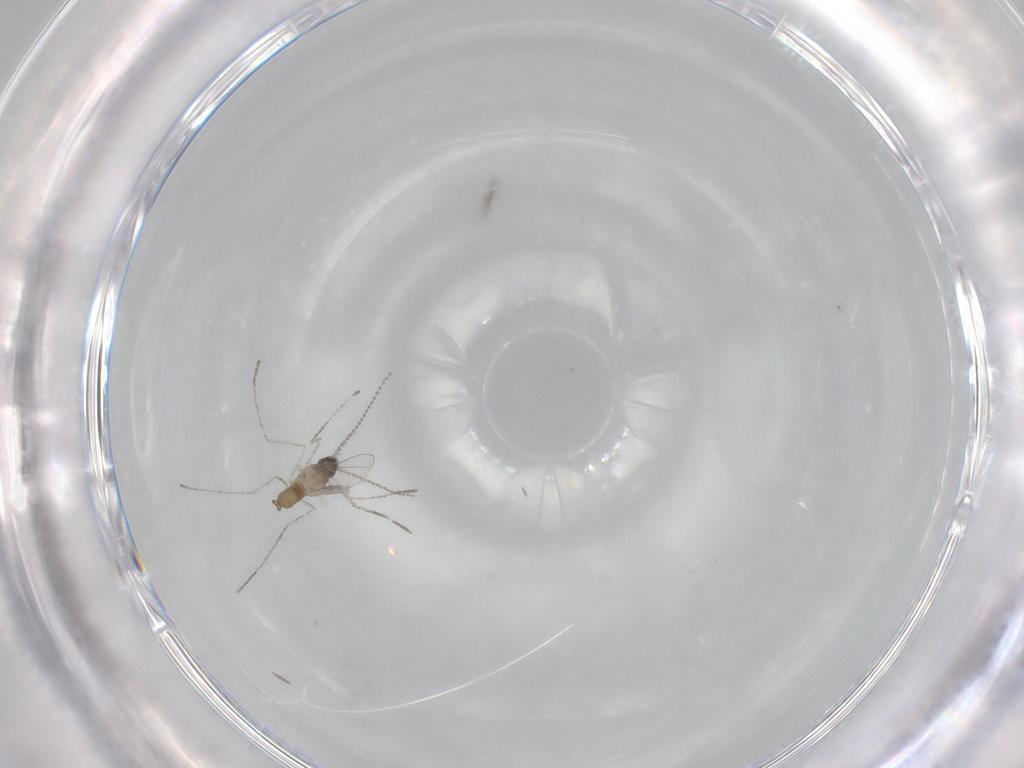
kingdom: Animalia
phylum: Arthropoda
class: Insecta
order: Diptera
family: Cecidomyiidae
